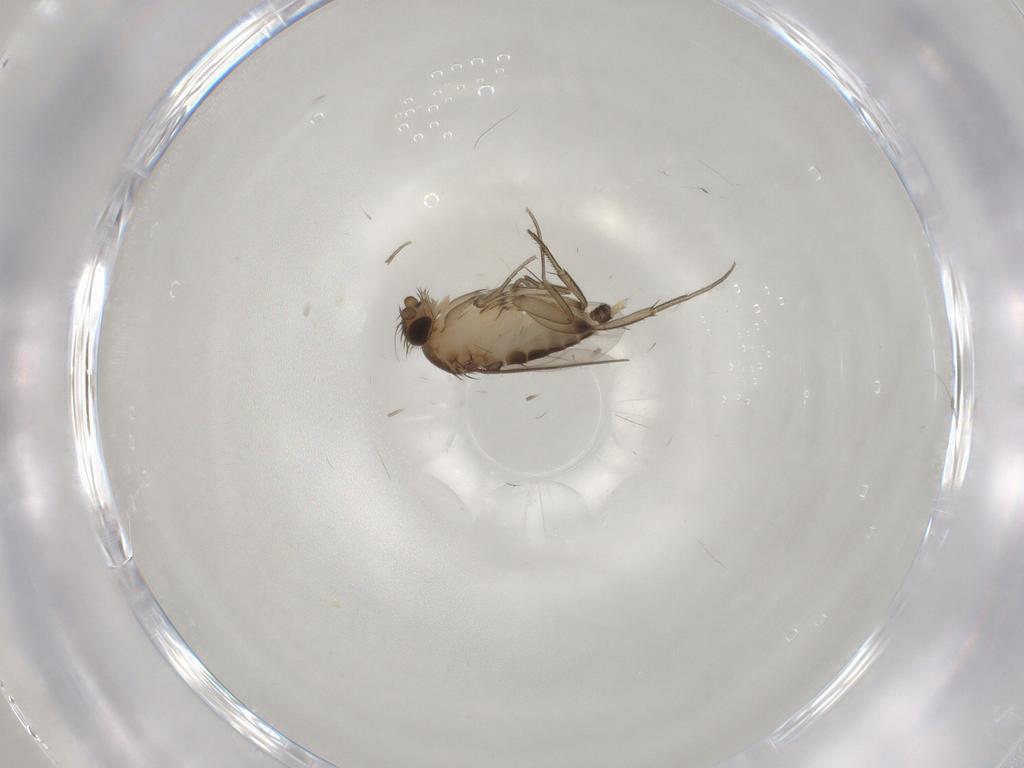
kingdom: Animalia
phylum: Arthropoda
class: Insecta
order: Diptera
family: Phoridae
